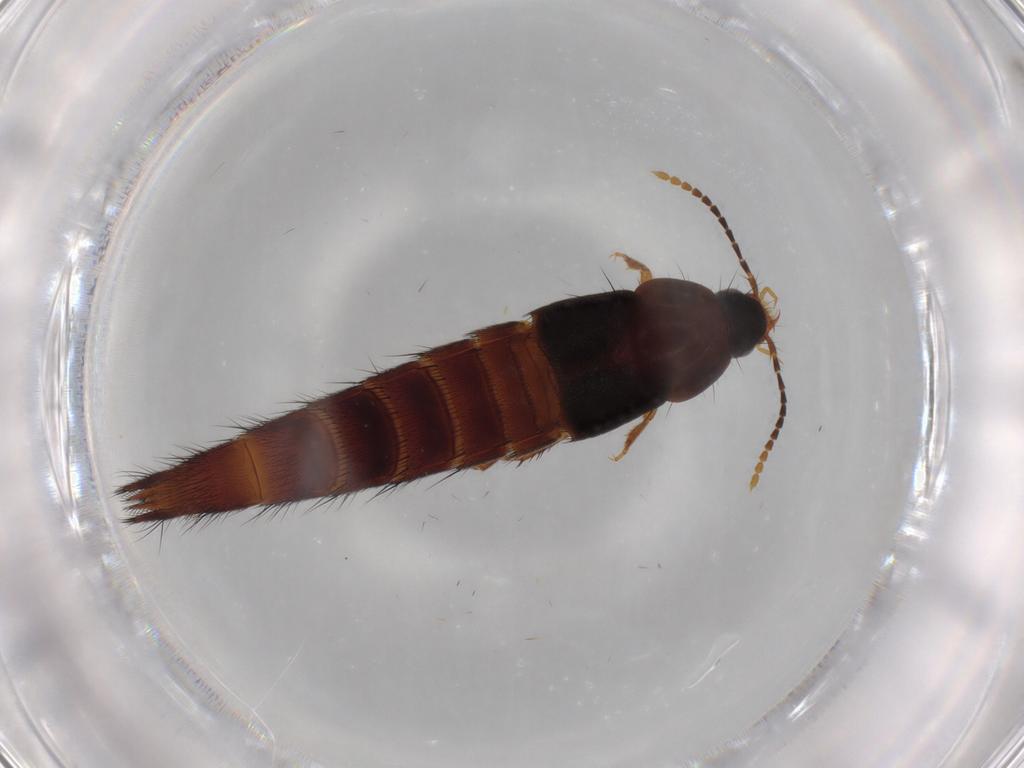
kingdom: Animalia
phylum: Arthropoda
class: Insecta
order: Coleoptera
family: Staphylinidae
